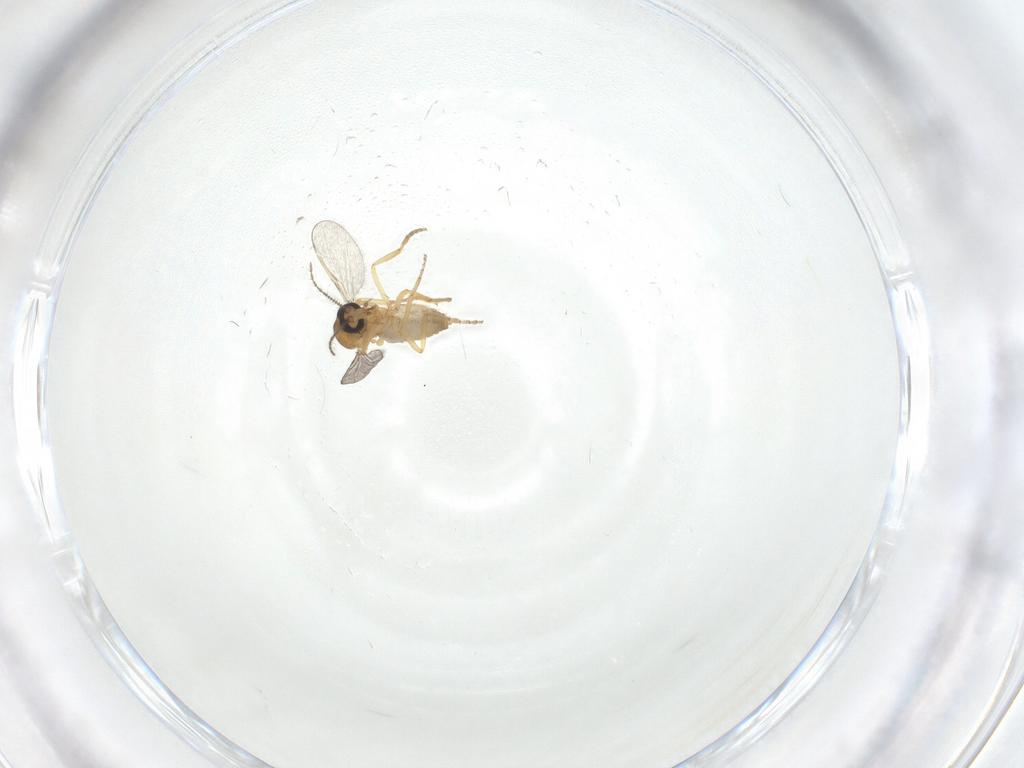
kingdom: Animalia
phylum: Arthropoda
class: Insecta
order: Diptera
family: Ceratopogonidae
